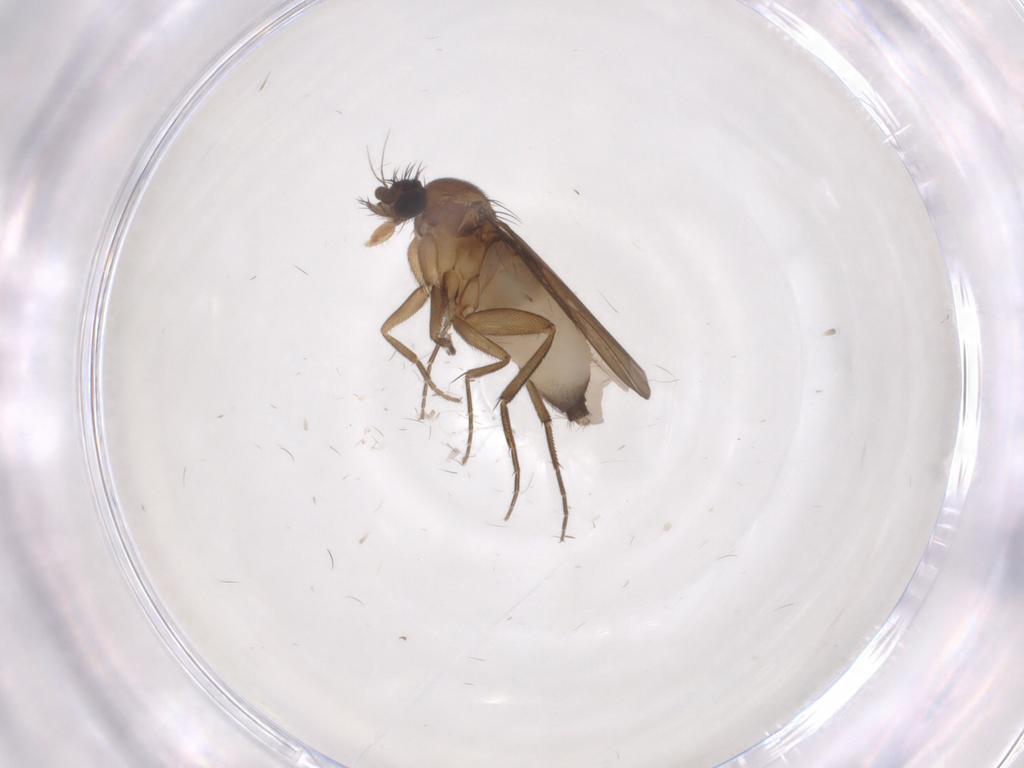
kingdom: Animalia
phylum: Arthropoda
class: Insecta
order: Diptera
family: Phoridae
